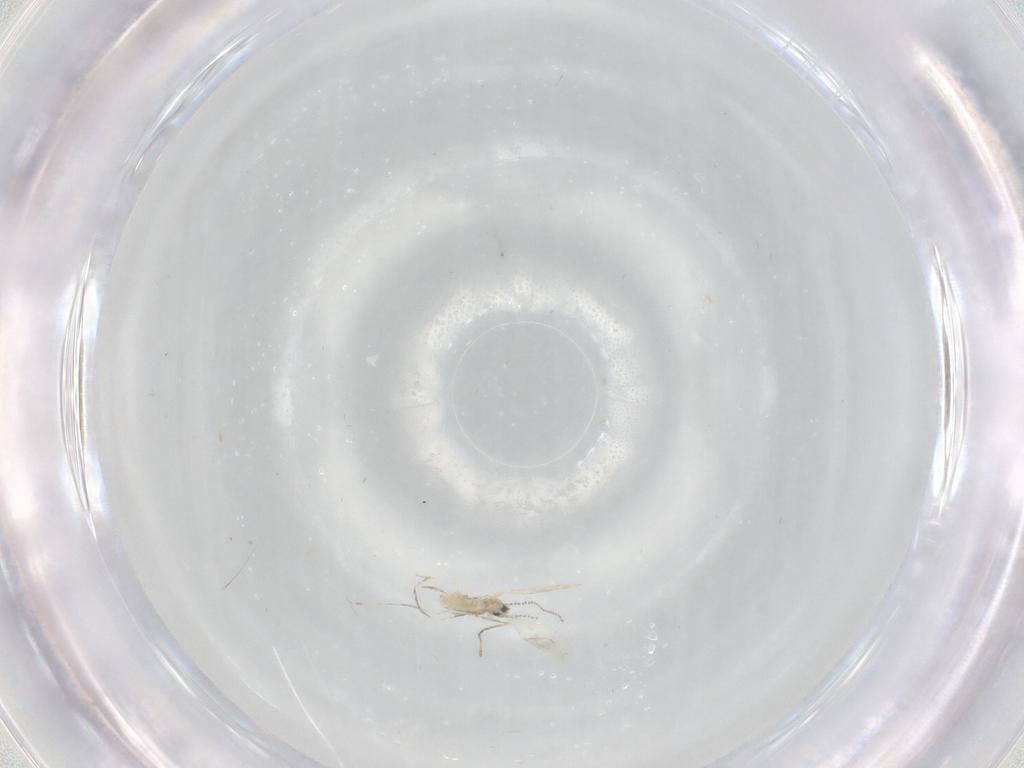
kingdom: Animalia
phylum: Arthropoda
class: Insecta
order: Diptera
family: Cecidomyiidae
